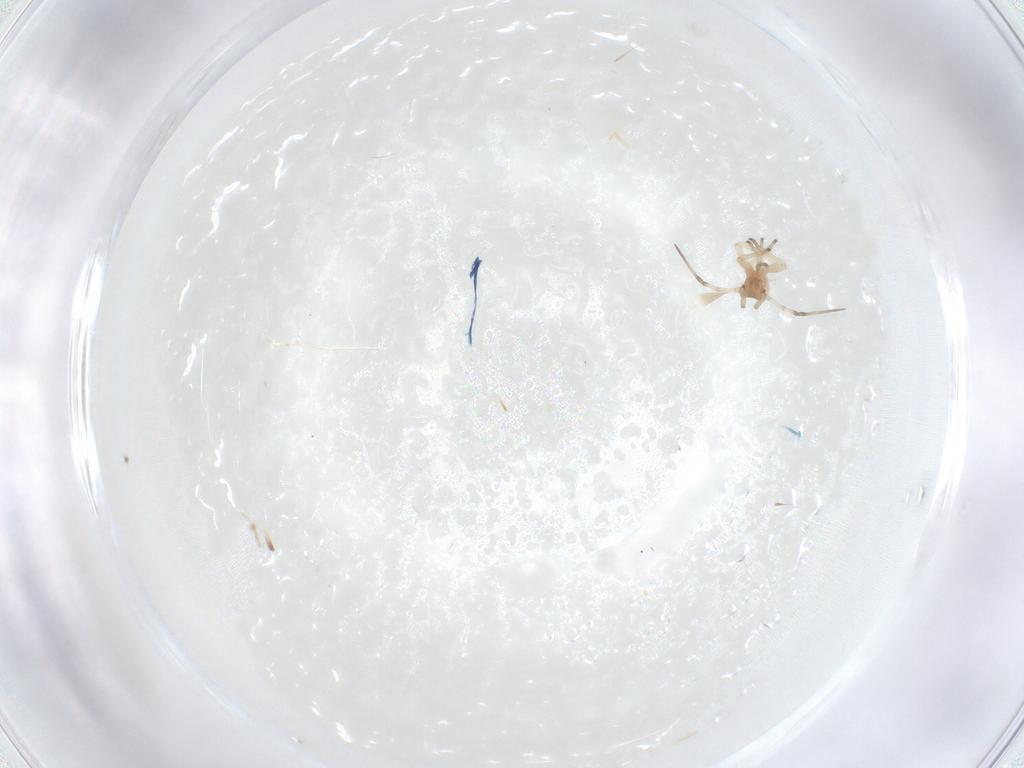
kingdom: Animalia
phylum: Arthropoda
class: Insecta
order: Hemiptera
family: Aphididae
